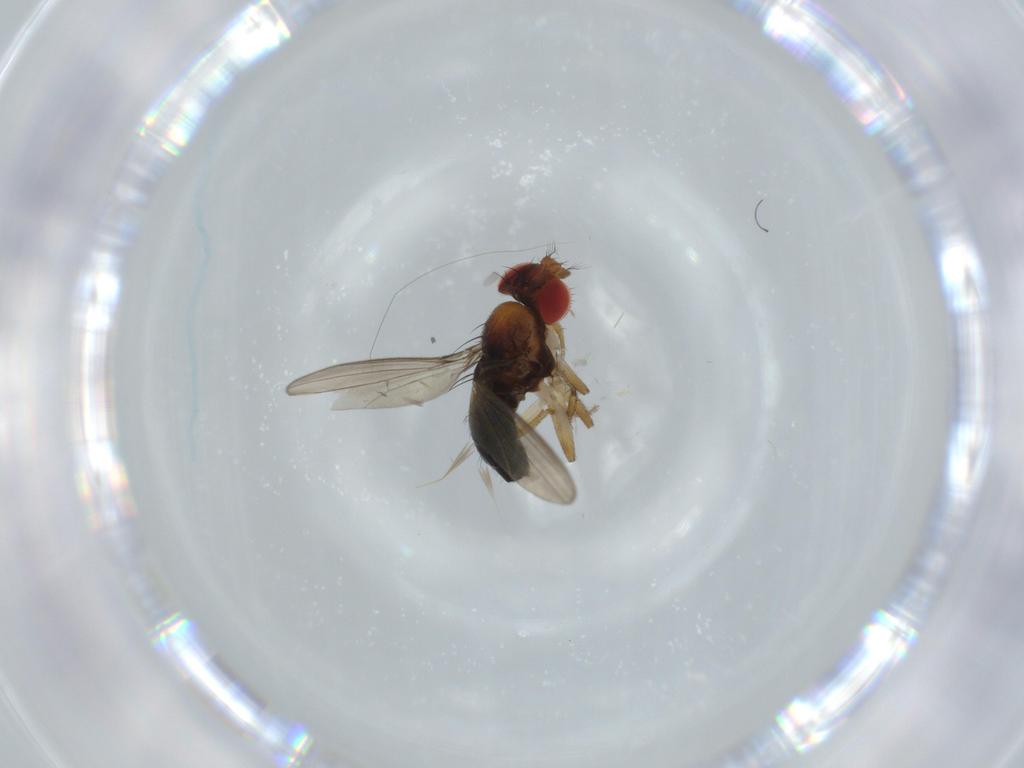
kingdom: Animalia
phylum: Arthropoda
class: Insecta
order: Diptera
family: Drosophilidae
